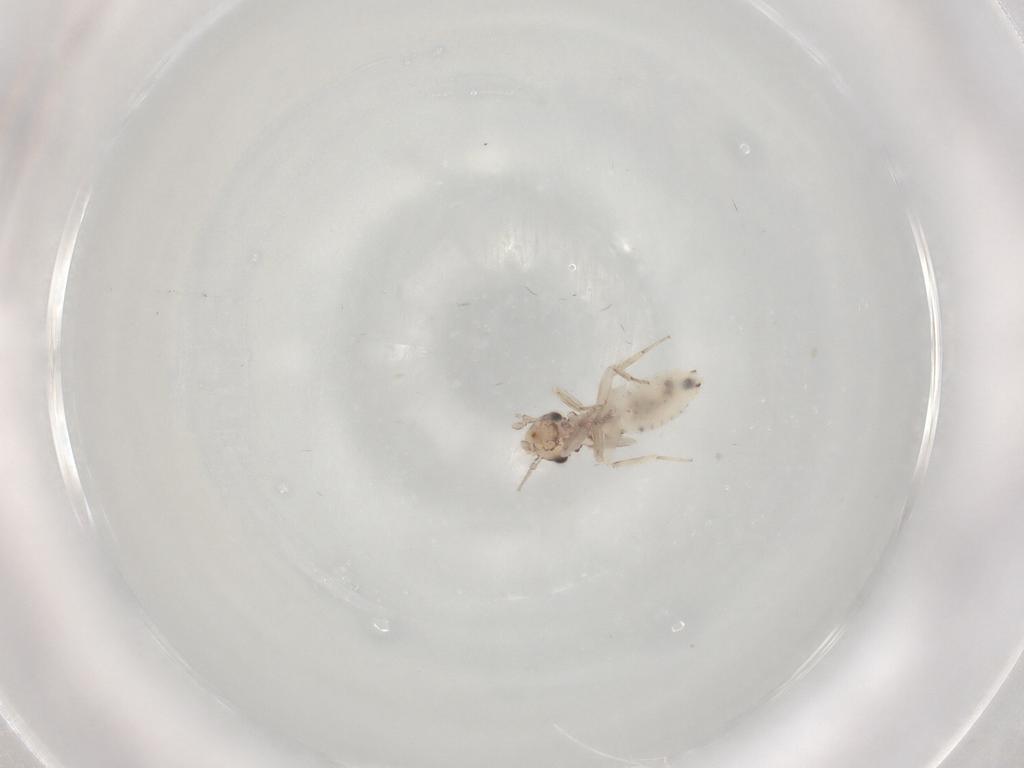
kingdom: Animalia
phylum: Arthropoda
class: Insecta
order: Psocodea
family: Lepidopsocidae
